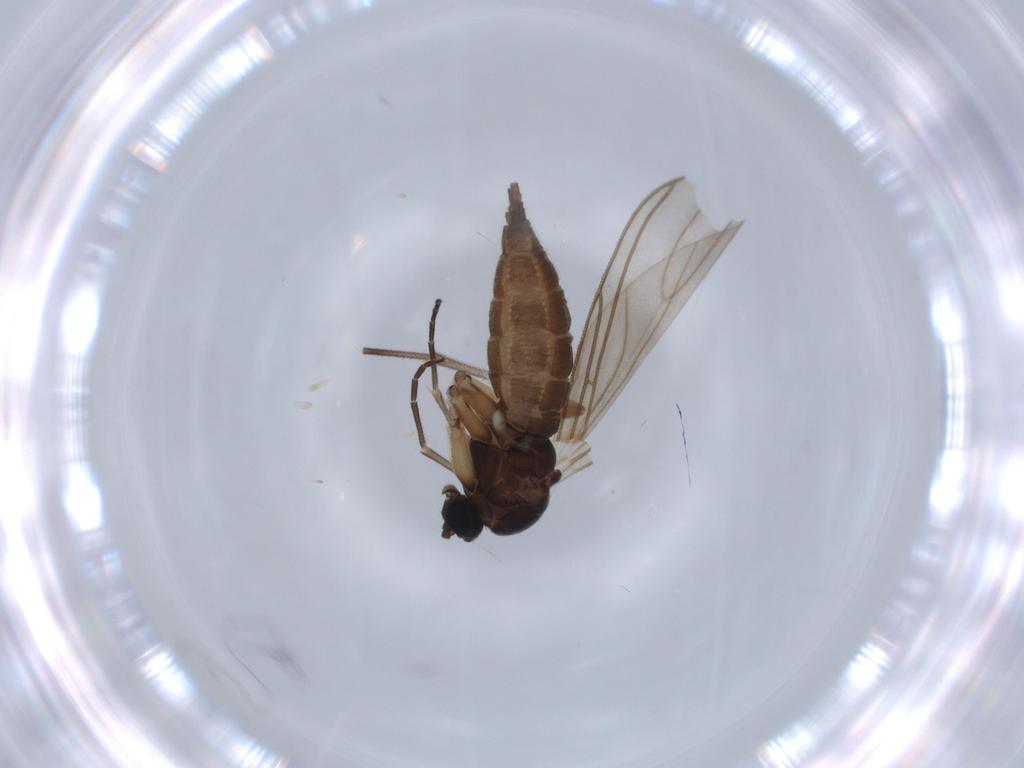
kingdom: Animalia
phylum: Arthropoda
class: Insecta
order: Diptera
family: Sciaridae
